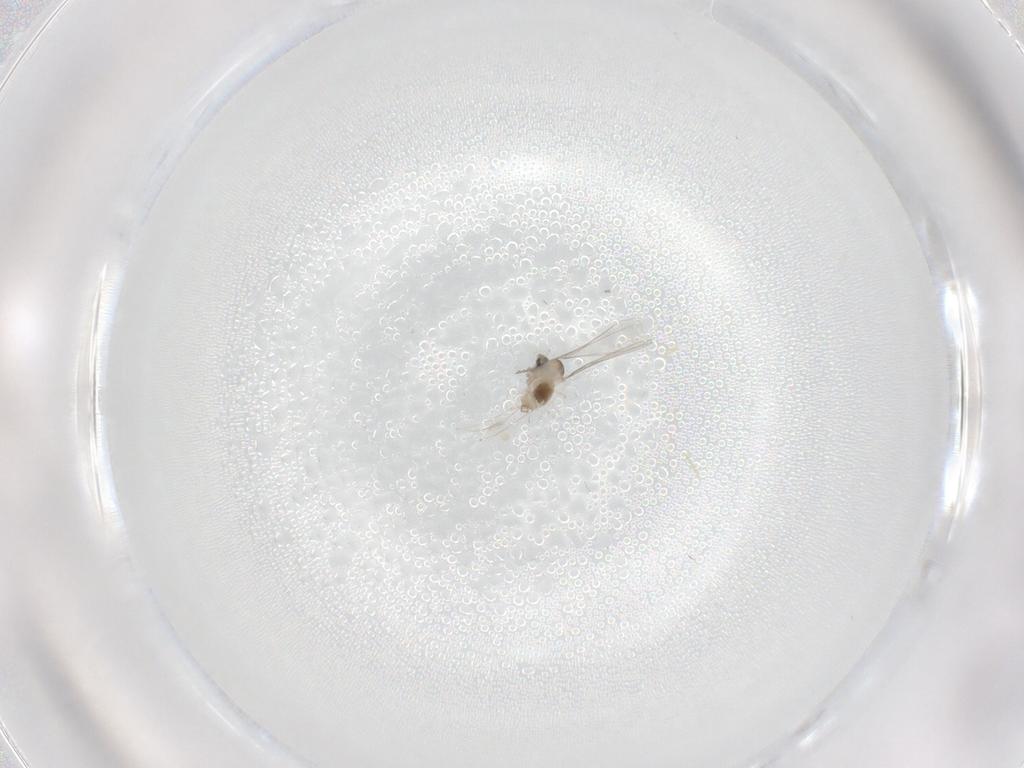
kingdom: Animalia
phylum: Arthropoda
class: Insecta
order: Diptera
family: Cecidomyiidae
